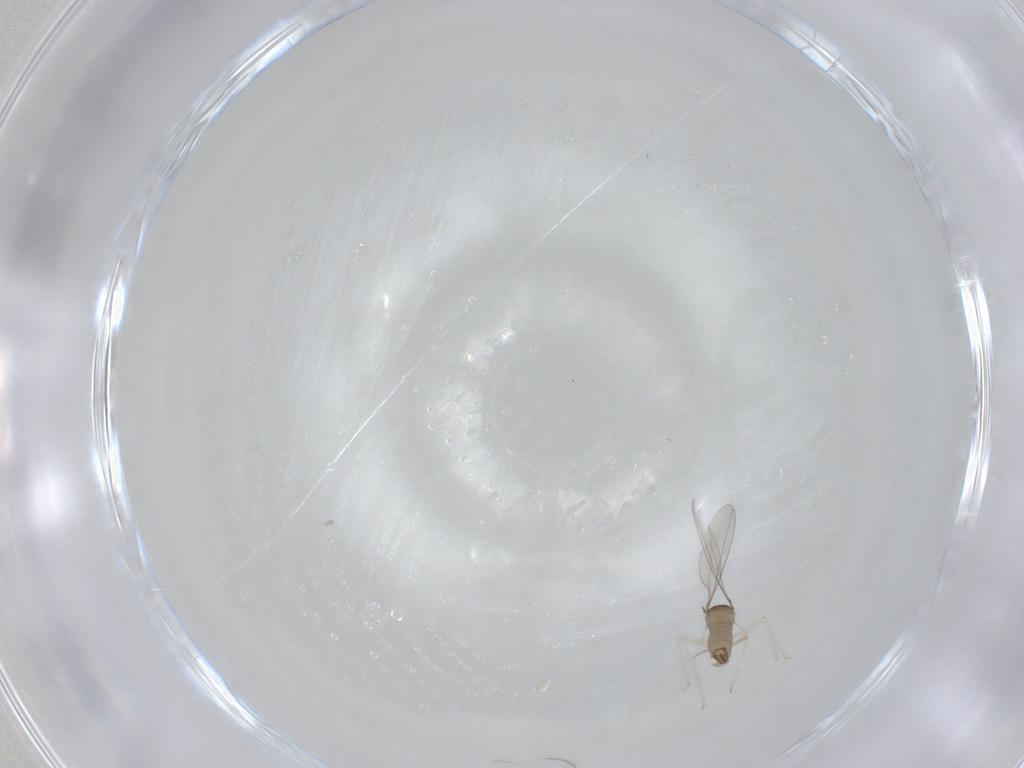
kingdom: Animalia
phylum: Arthropoda
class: Insecta
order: Diptera
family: Cecidomyiidae
